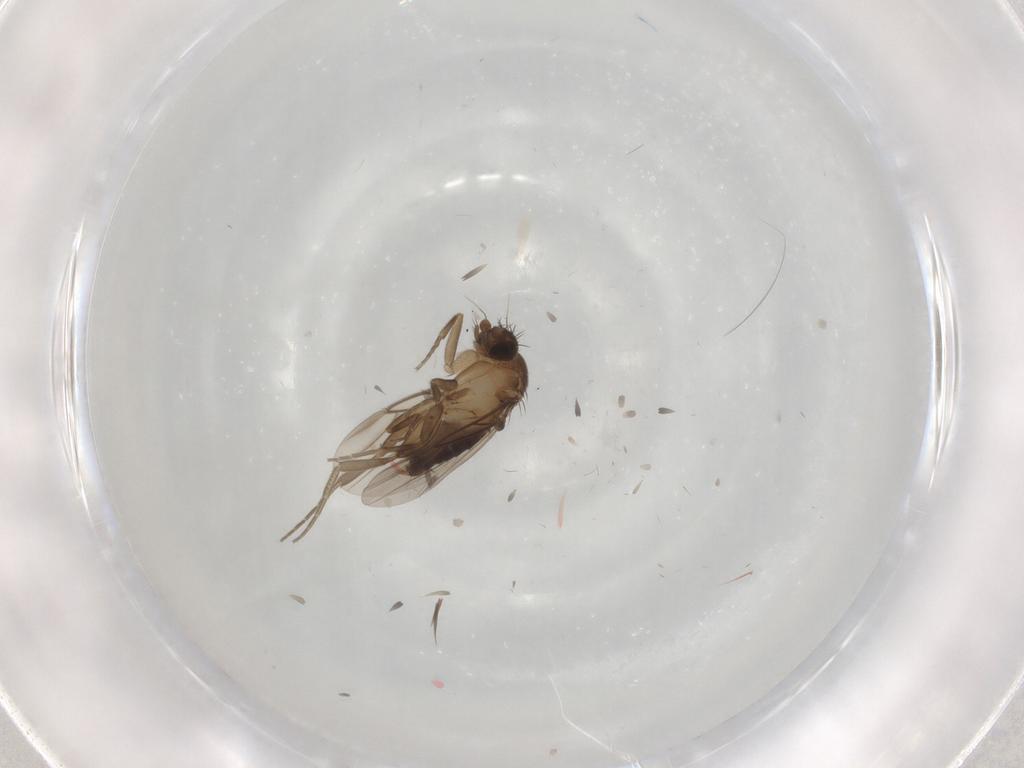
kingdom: Animalia
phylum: Arthropoda
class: Insecta
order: Diptera
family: Phoridae
